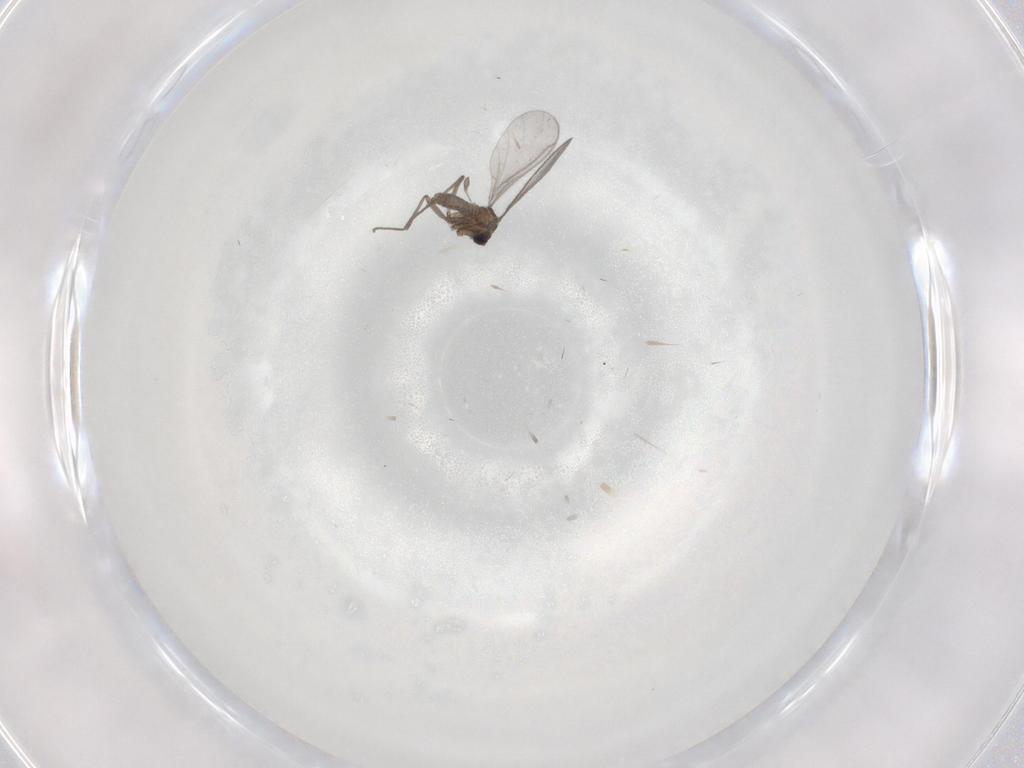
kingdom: Animalia
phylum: Arthropoda
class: Insecta
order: Diptera
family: Sciaridae
